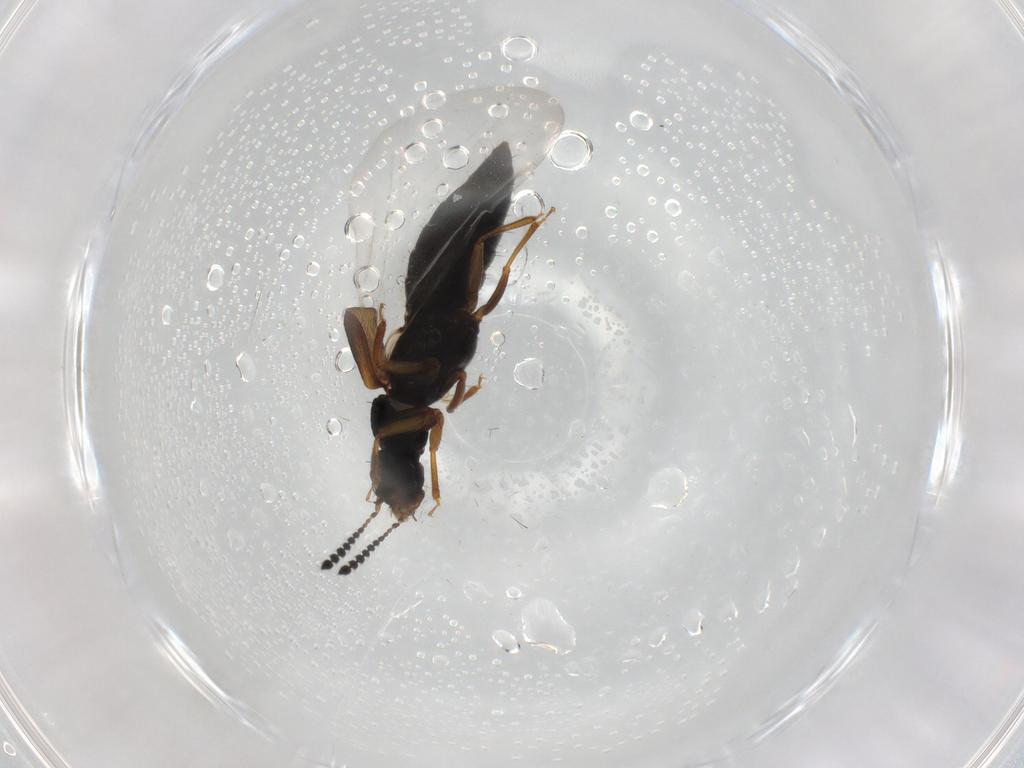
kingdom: Animalia
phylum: Arthropoda
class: Insecta
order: Coleoptera
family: Staphylinidae
